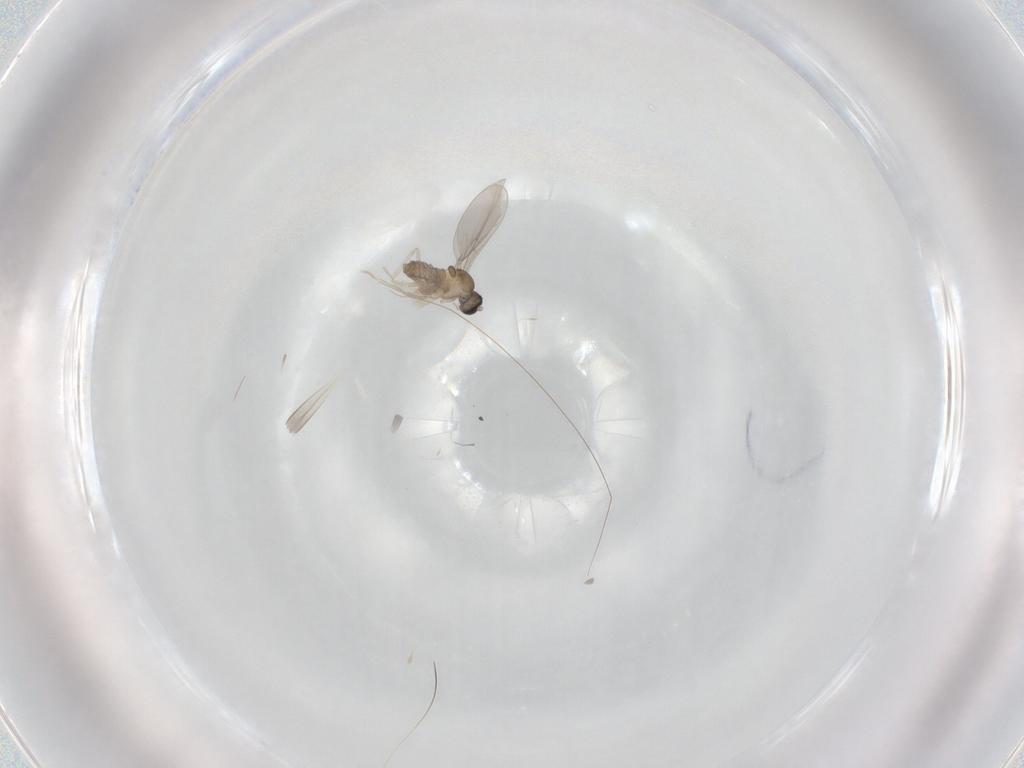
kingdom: Animalia
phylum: Arthropoda
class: Insecta
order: Diptera
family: Cecidomyiidae
